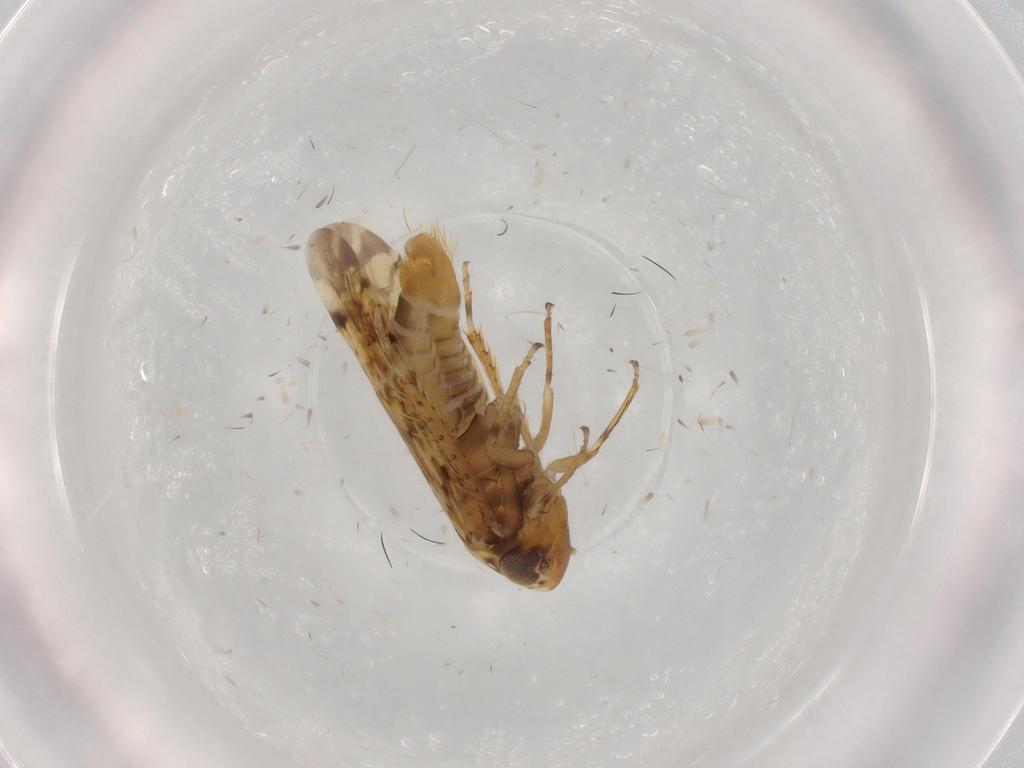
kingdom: Animalia
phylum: Arthropoda
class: Insecta
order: Hemiptera
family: Cicadellidae
